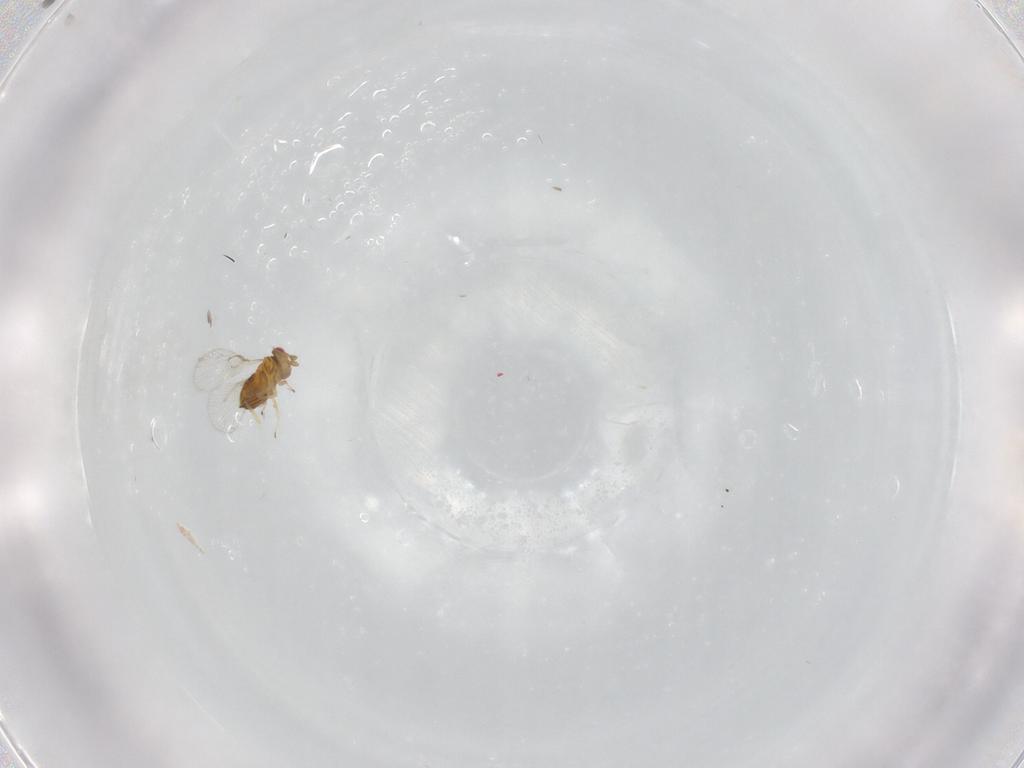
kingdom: Animalia
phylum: Arthropoda
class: Insecta
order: Hymenoptera
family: Trichogrammatidae
